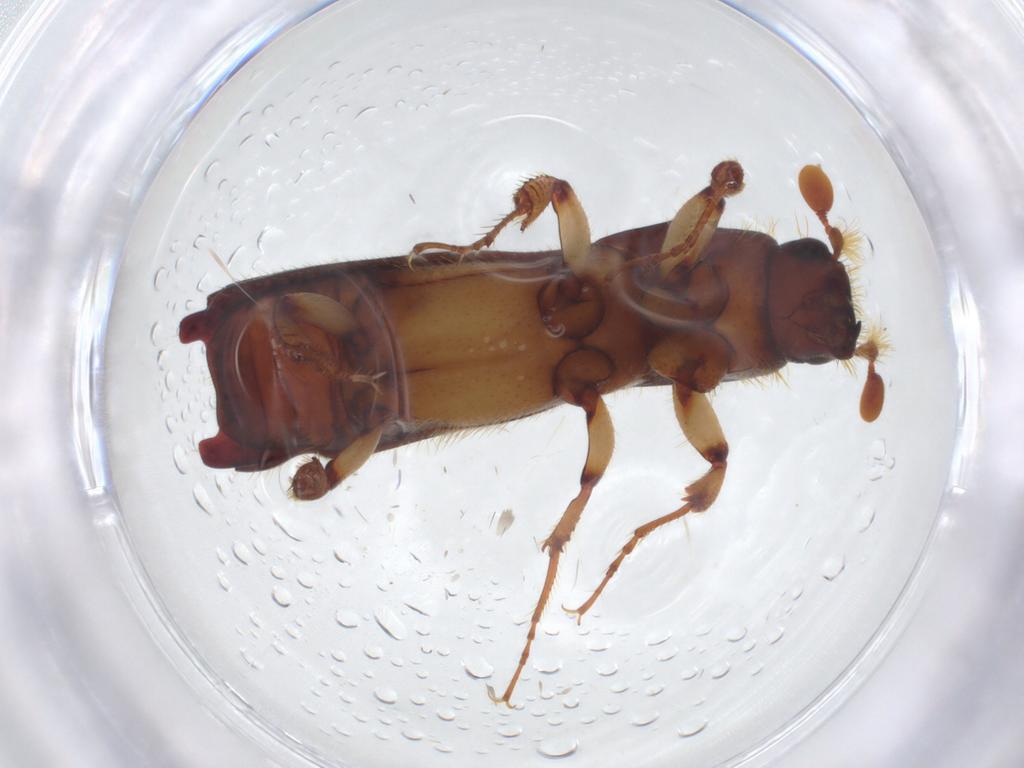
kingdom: Animalia
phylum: Arthropoda
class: Insecta
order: Coleoptera
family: Curculionidae
